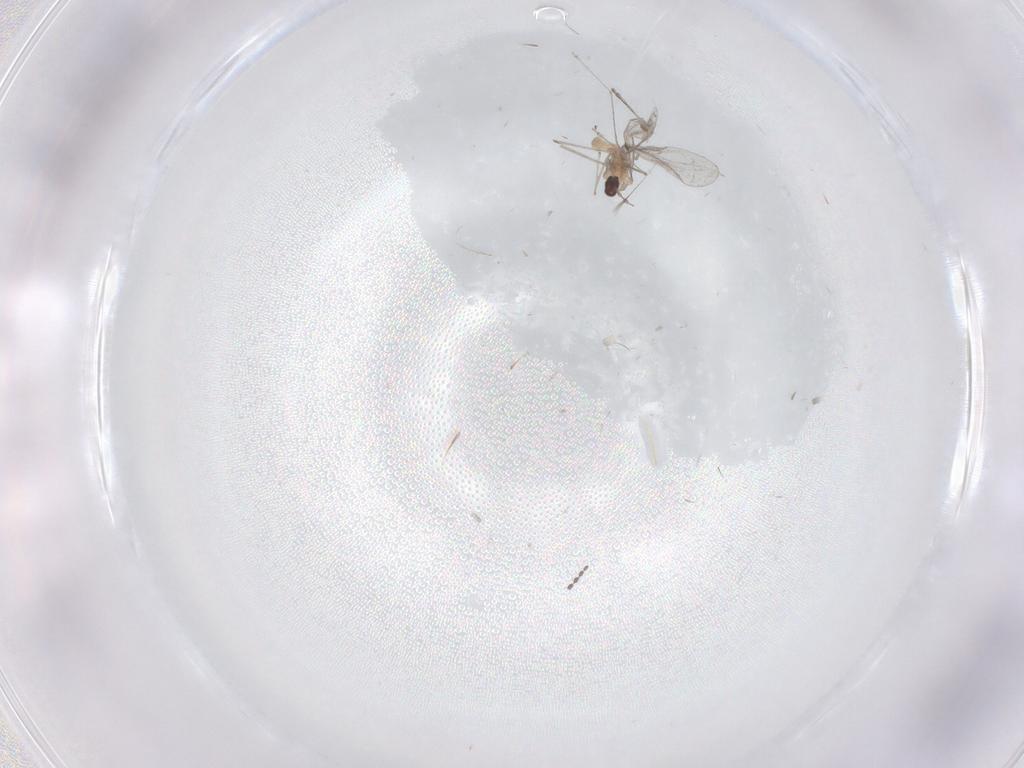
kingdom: Animalia
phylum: Arthropoda
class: Insecta
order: Diptera
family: Cecidomyiidae
